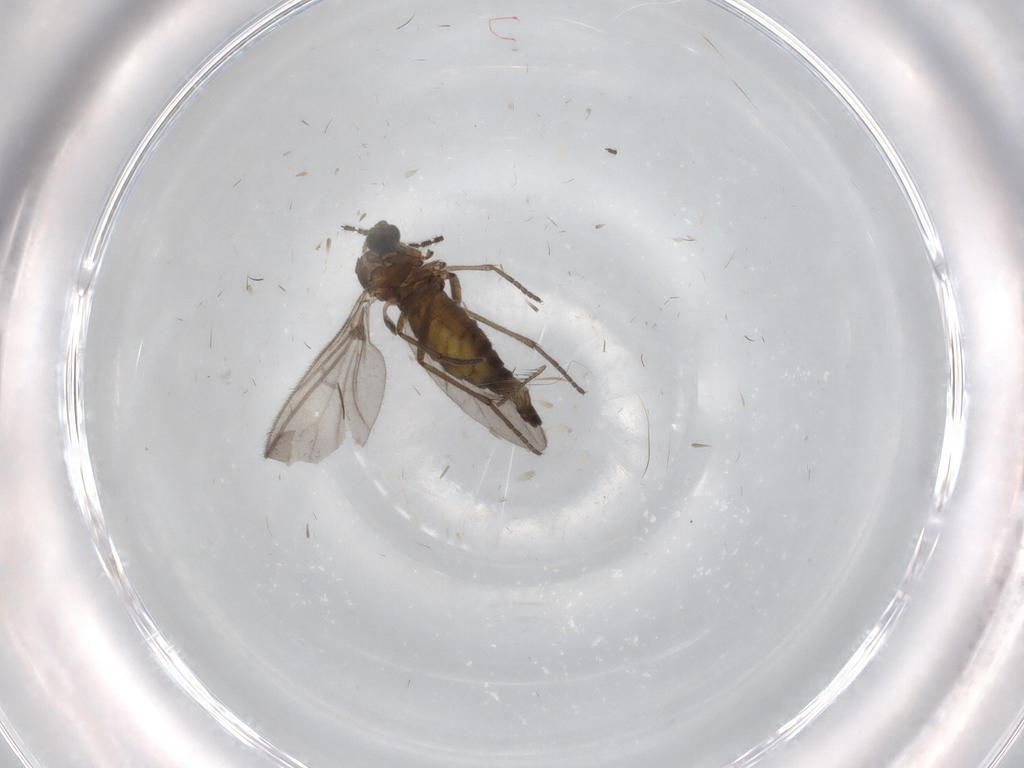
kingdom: Animalia
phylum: Arthropoda
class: Insecta
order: Diptera
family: Sciaridae
